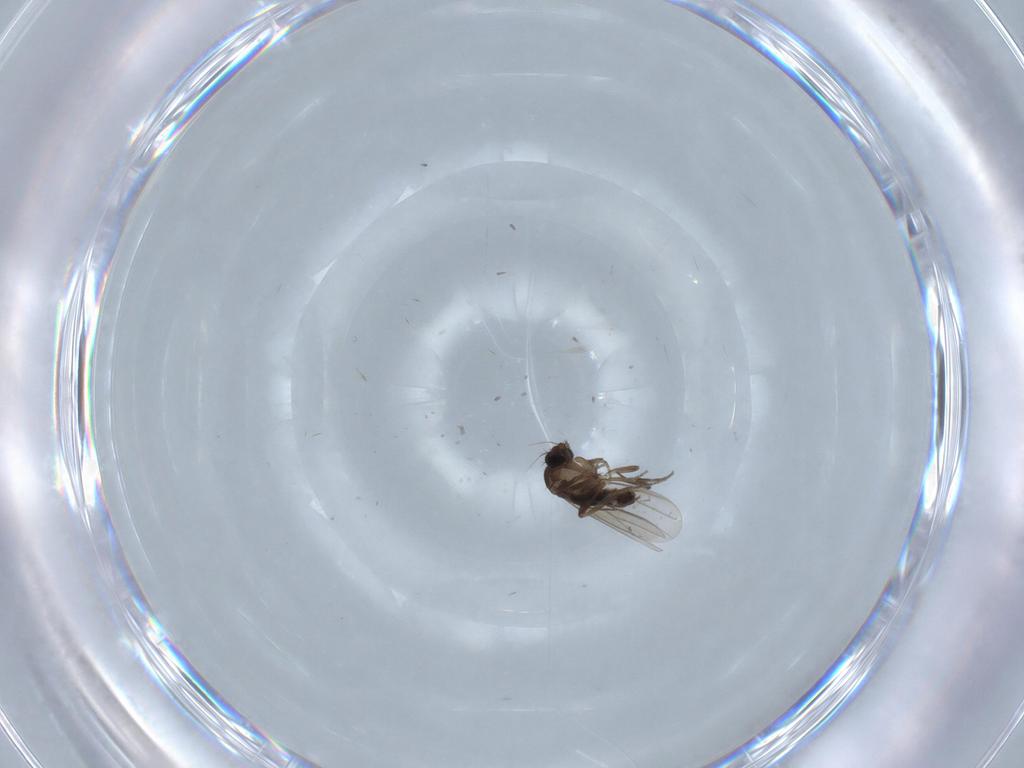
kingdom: Animalia
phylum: Arthropoda
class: Insecta
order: Diptera
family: Phoridae
